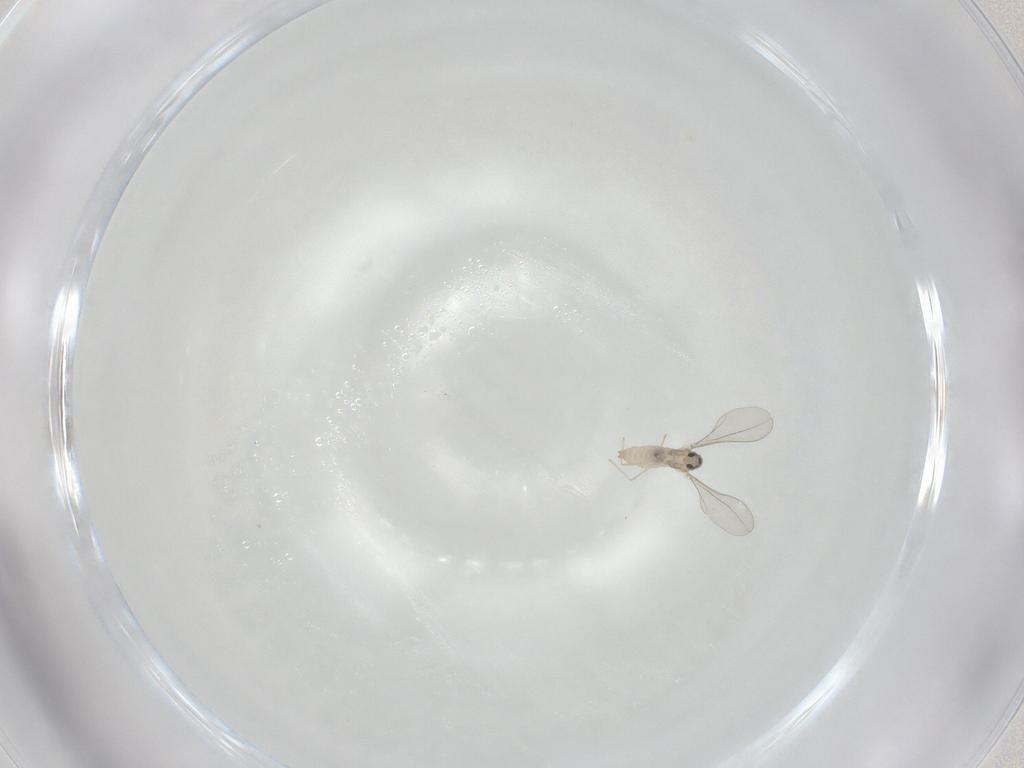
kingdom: Animalia
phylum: Arthropoda
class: Insecta
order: Diptera
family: Cecidomyiidae
